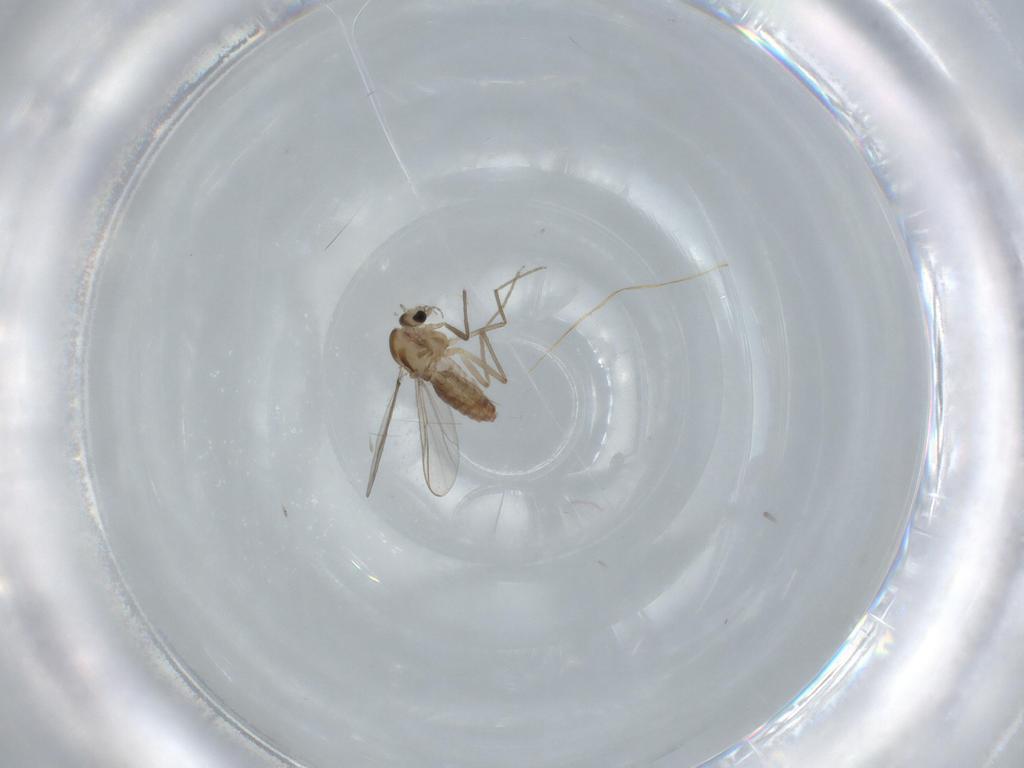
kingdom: Animalia
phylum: Arthropoda
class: Insecta
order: Diptera
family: Chironomidae
